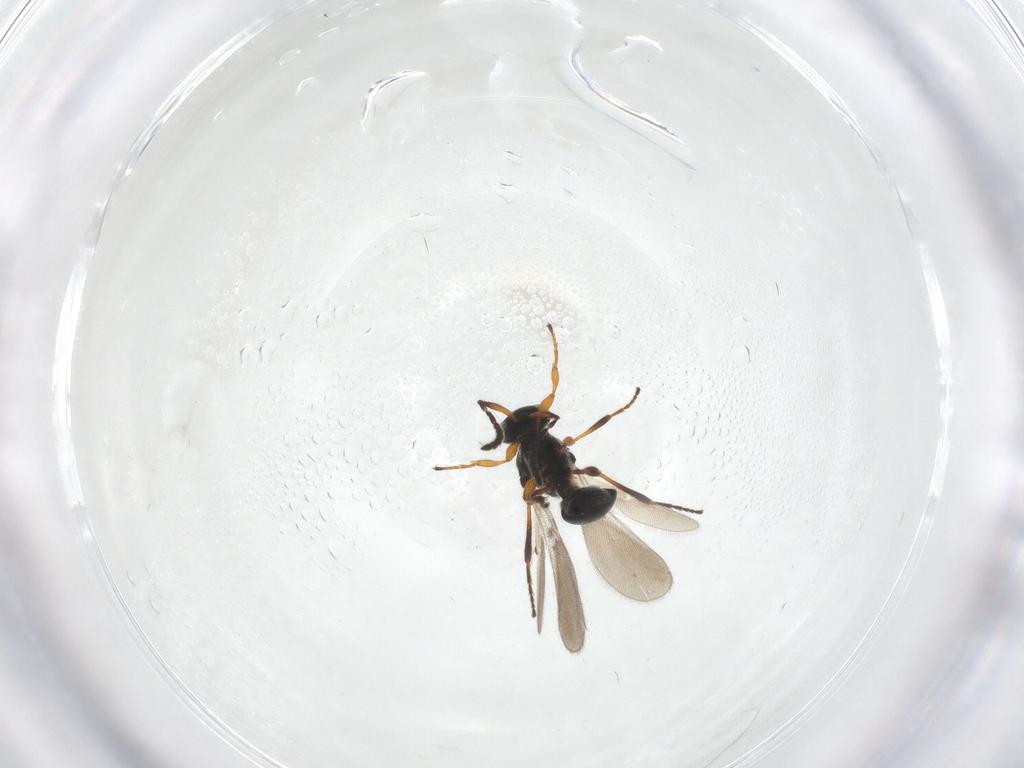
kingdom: Animalia
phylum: Arthropoda
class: Insecta
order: Hymenoptera
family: Platygastridae
